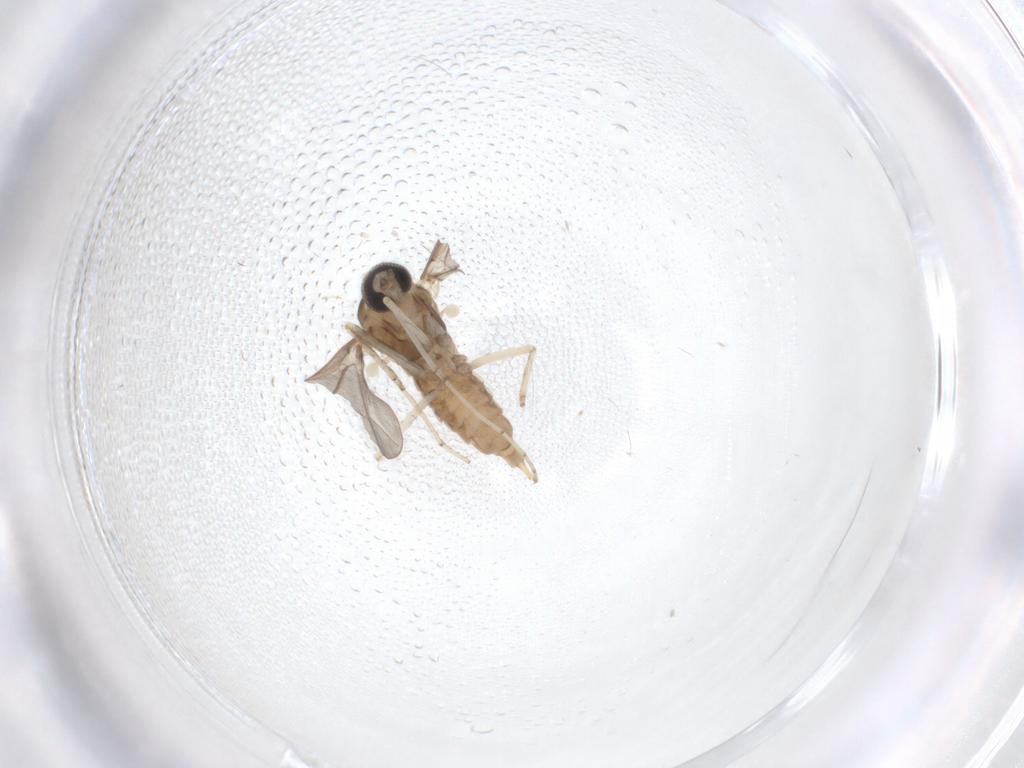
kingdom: Animalia
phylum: Arthropoda
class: Insecta
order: Diptera
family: Cecidomyiidae
